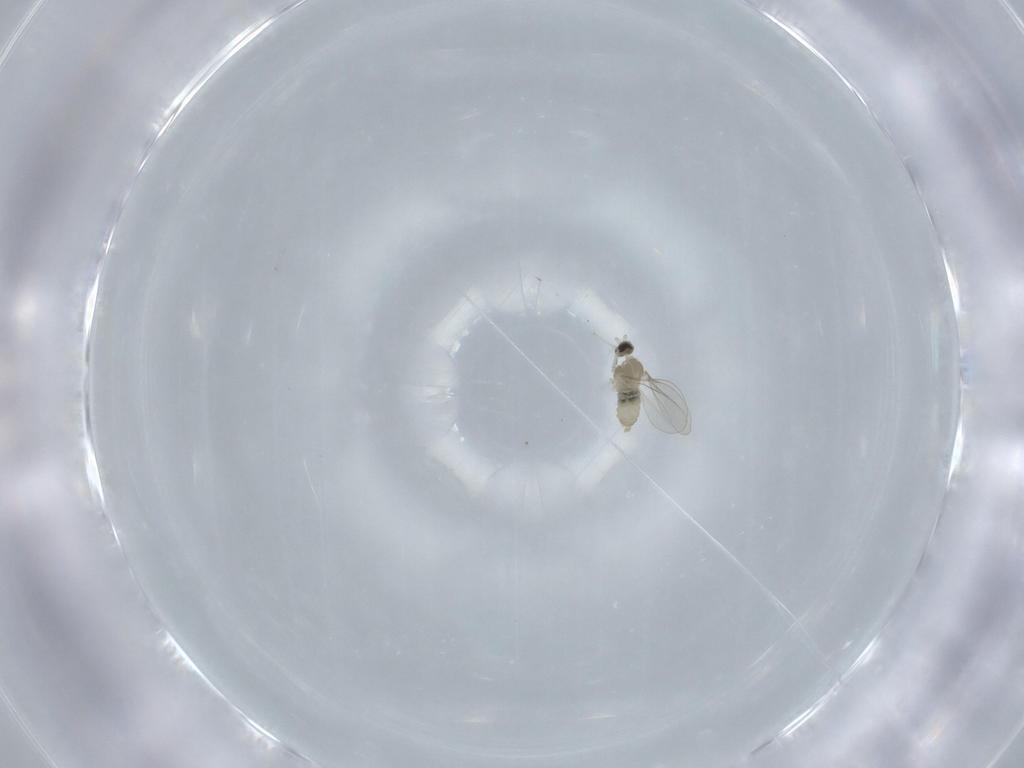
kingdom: Animalia
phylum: Arthropoda
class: Insecta
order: Diptera
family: Cecidomyiidae
